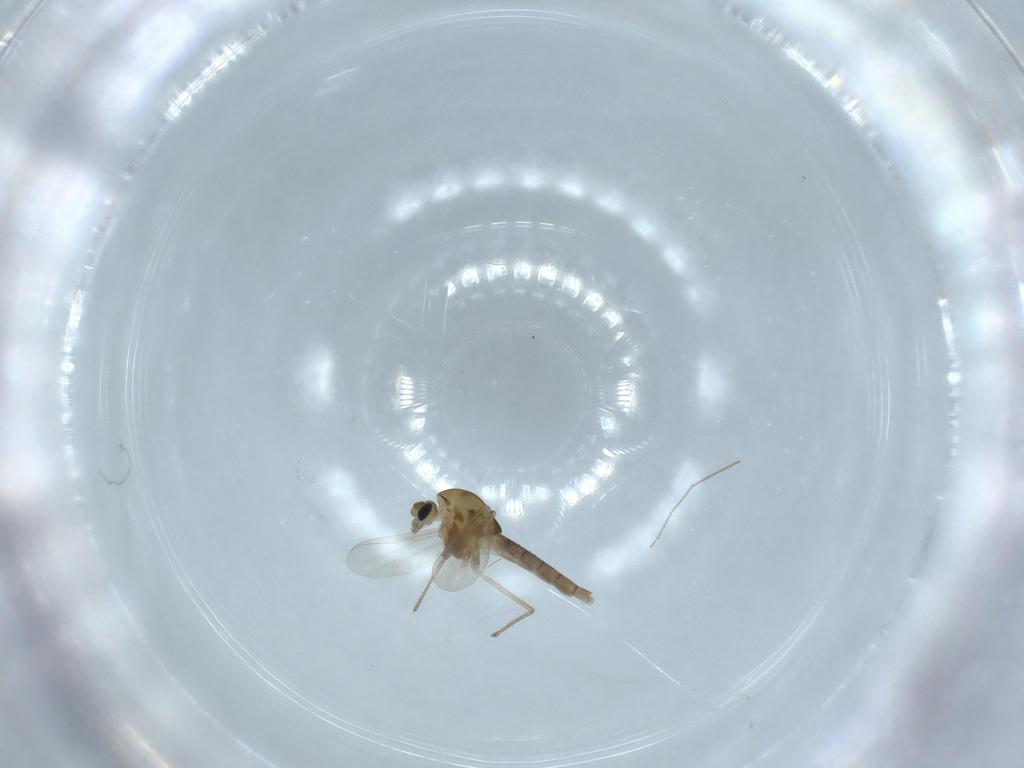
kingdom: Animalia
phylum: Arthropoda
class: Insecta
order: Diptera
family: Chironomidae
